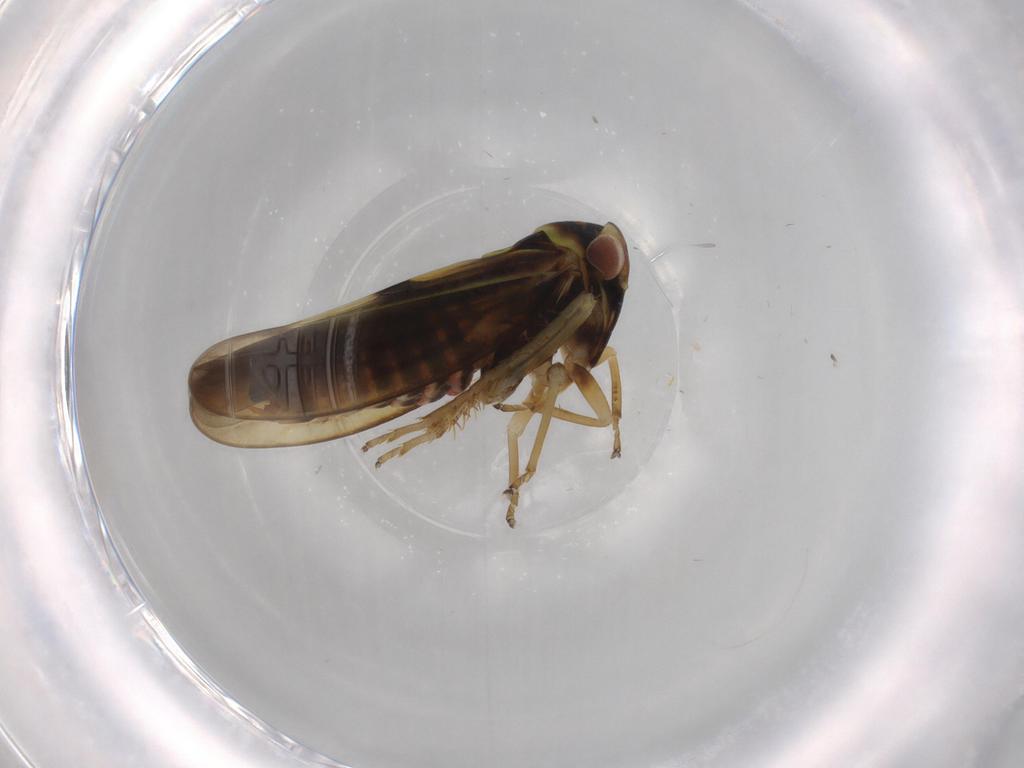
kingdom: Animalia
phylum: Arthropoda
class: Insecta
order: Hemiptera
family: Cicadellidae
